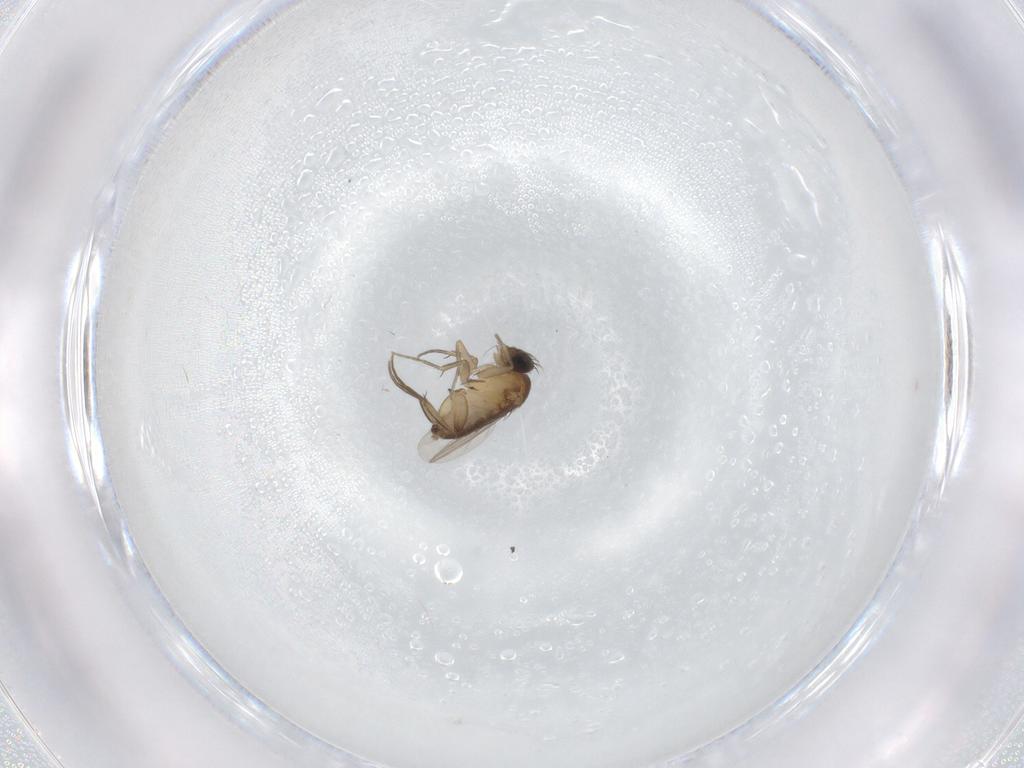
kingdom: Animalia
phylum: Arthropoda
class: Insecta
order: Diptera
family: Phoridae
